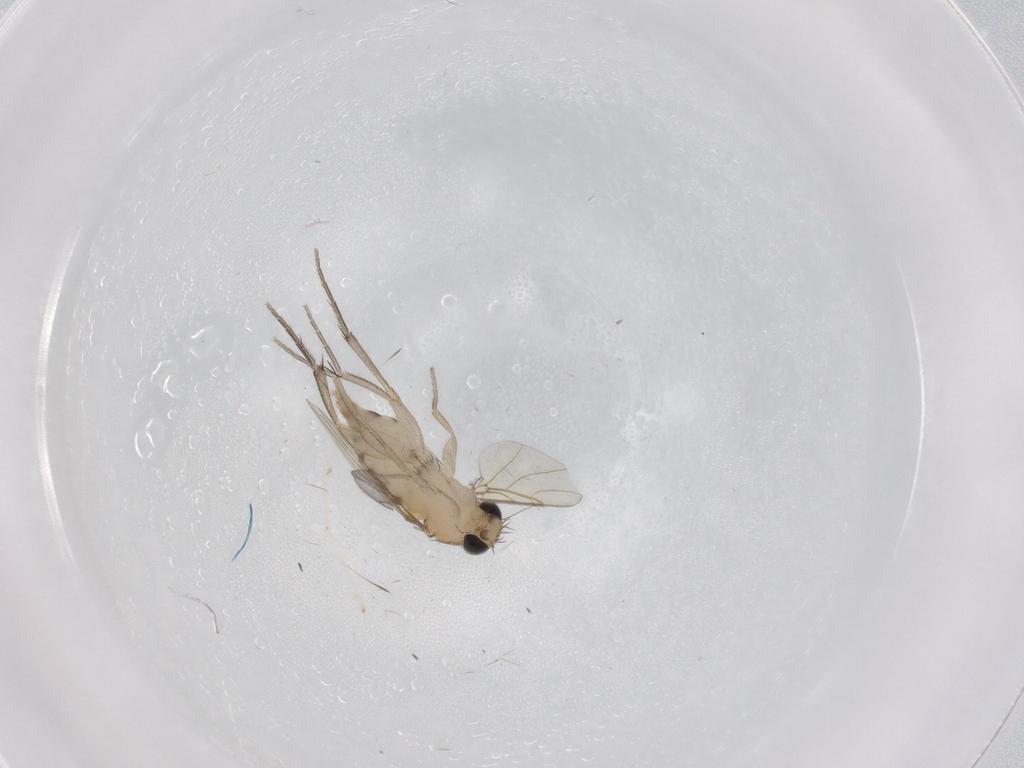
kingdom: Animalia
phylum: Arthropoda
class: Insecta
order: Diptera
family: Phoridae
